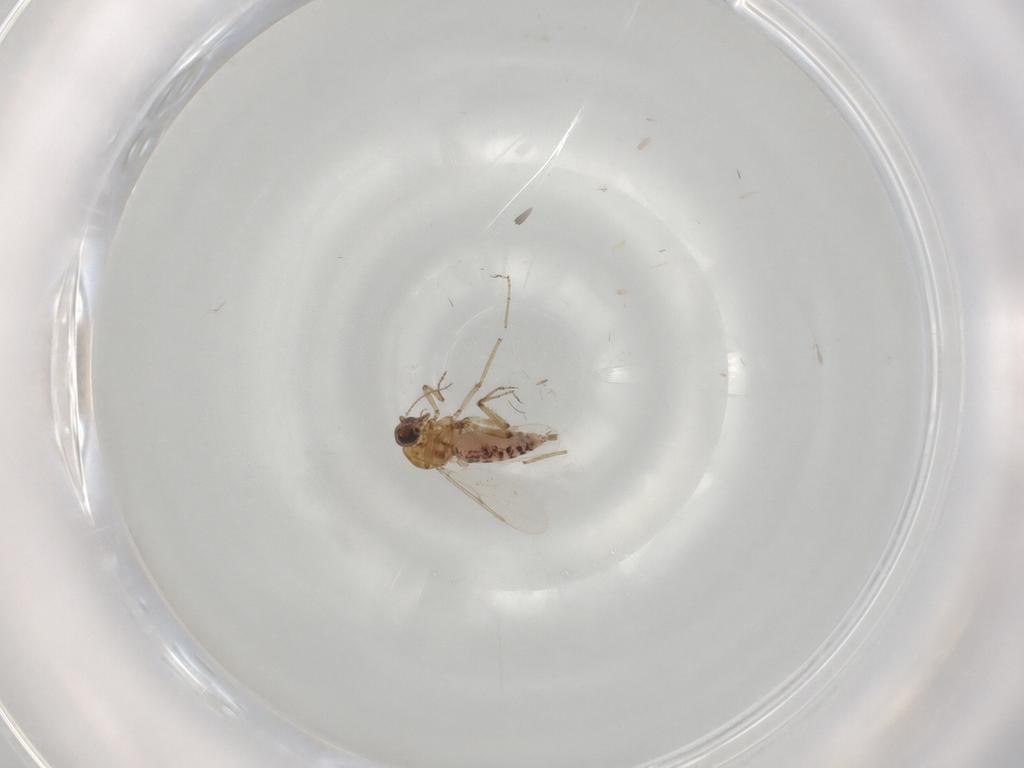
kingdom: Animalia
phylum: Arthropoda
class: Insecta
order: Diptera
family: Ceratopogonidae
